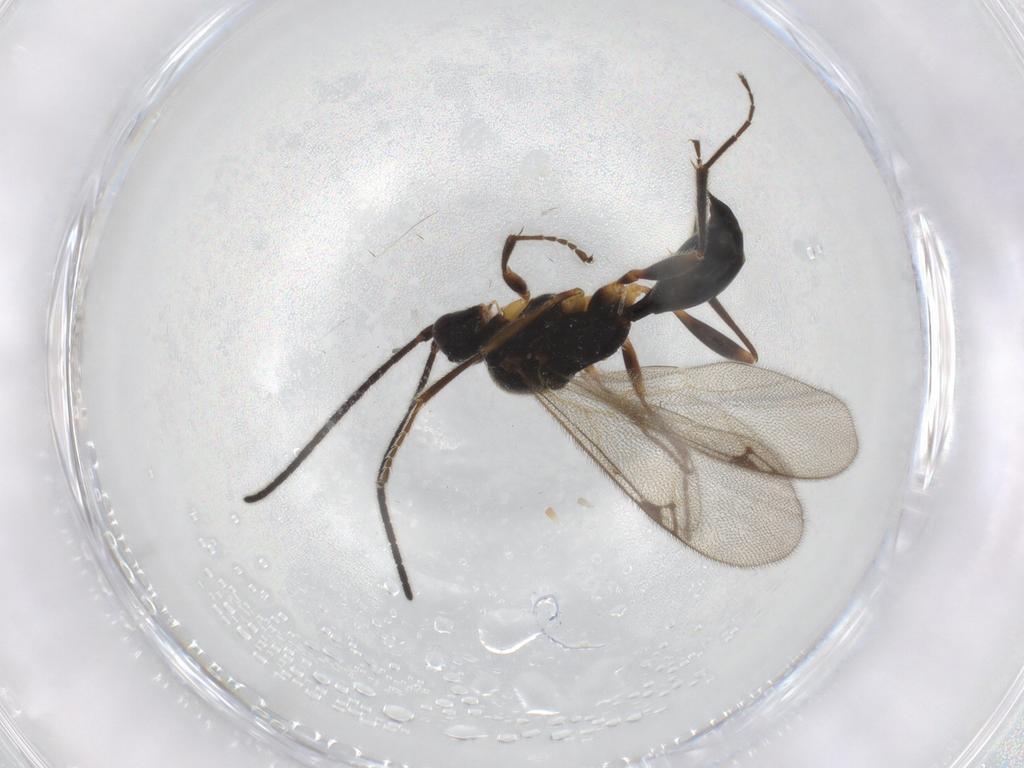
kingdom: Animalia
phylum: Arthropoda
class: Insecta
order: Hymenoptera
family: Proctotrupidae
